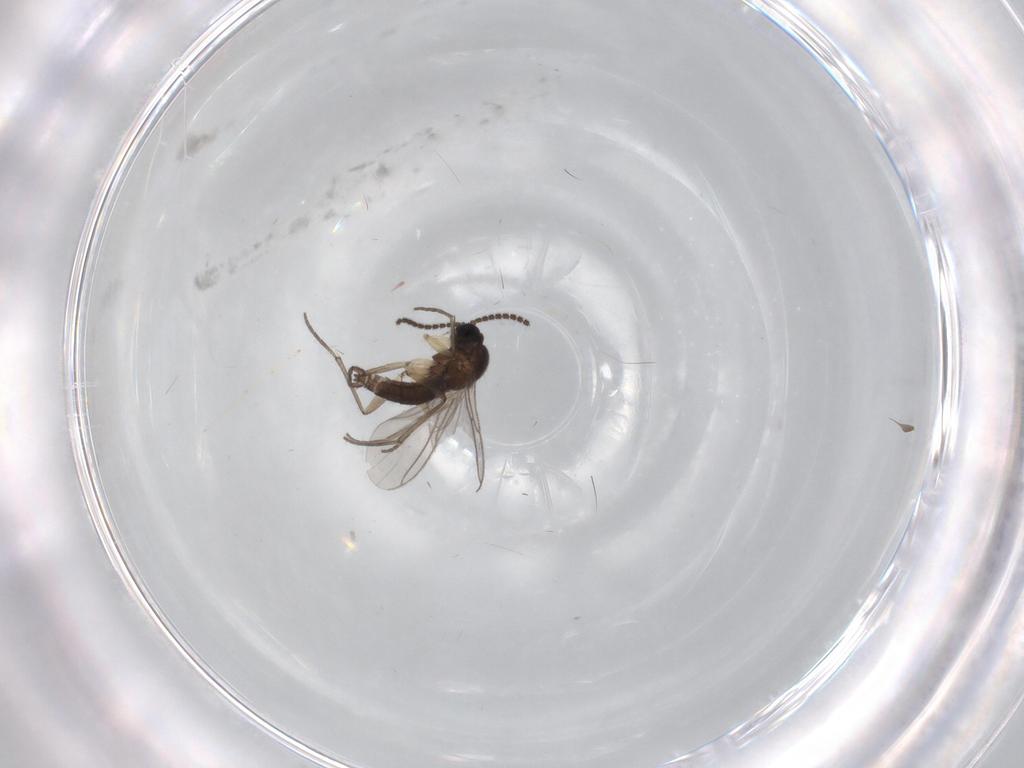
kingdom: Animalia
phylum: Arthropoda
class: Insecta
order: Diptera
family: Sciaridae
